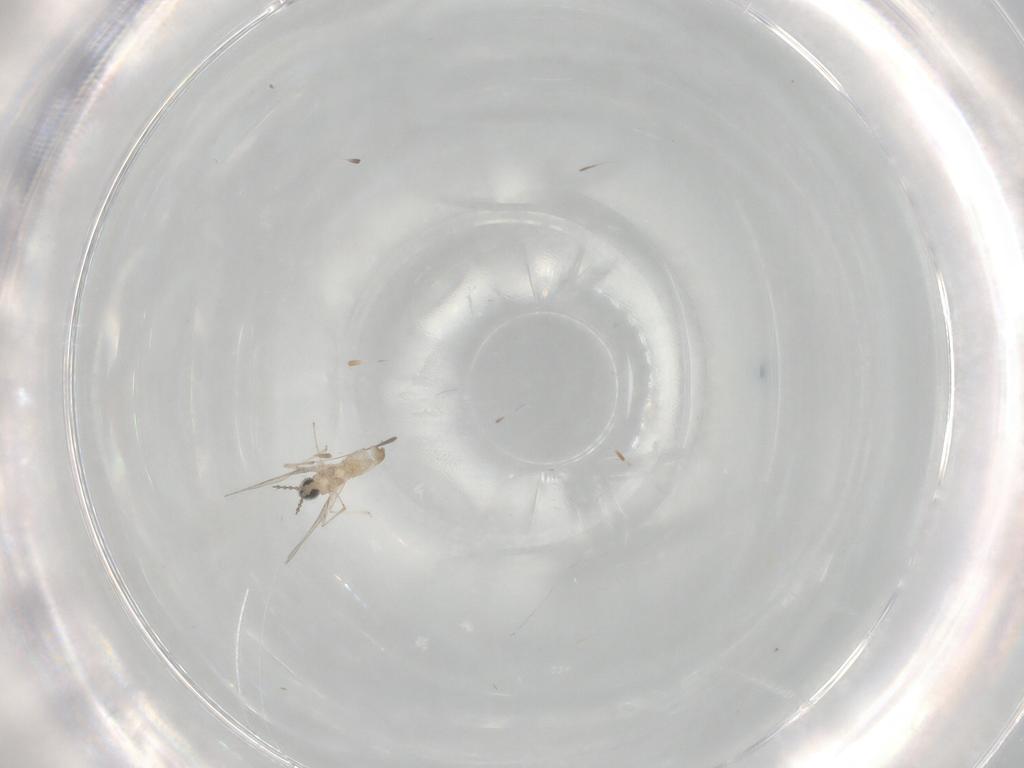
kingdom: Animalia
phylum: Arthropoda
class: Insecta
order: Diptera
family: Cecidomyiidae
